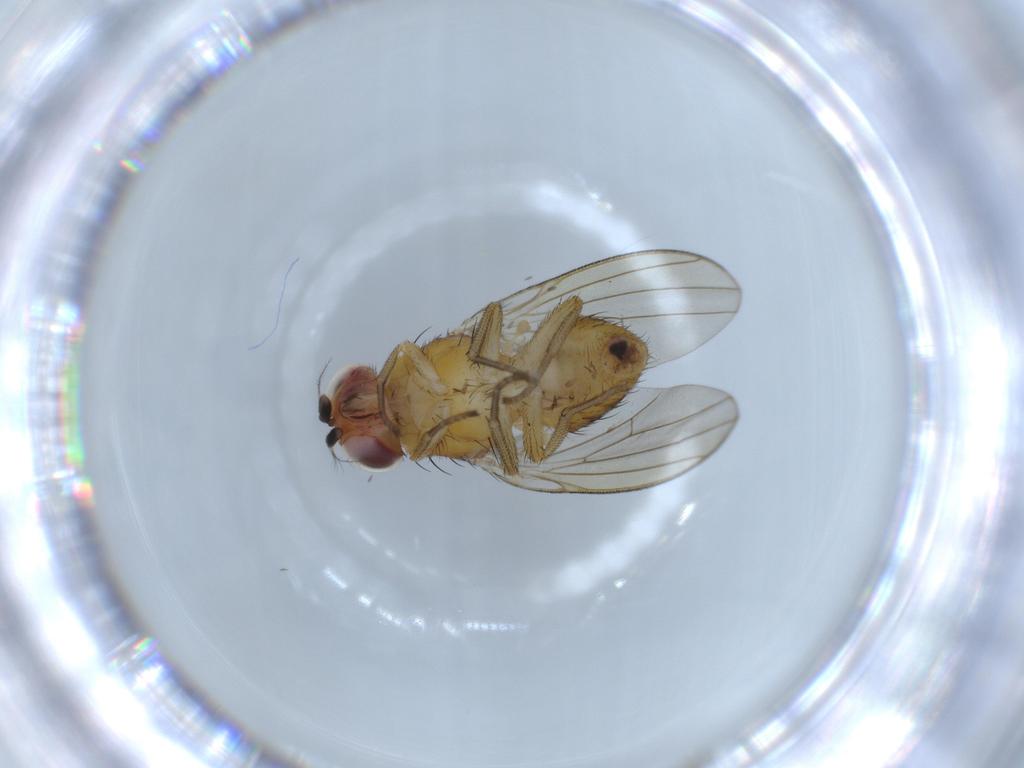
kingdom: Animalia
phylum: Arthropoda
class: Insecta
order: Diptera
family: Lauxaniidae
